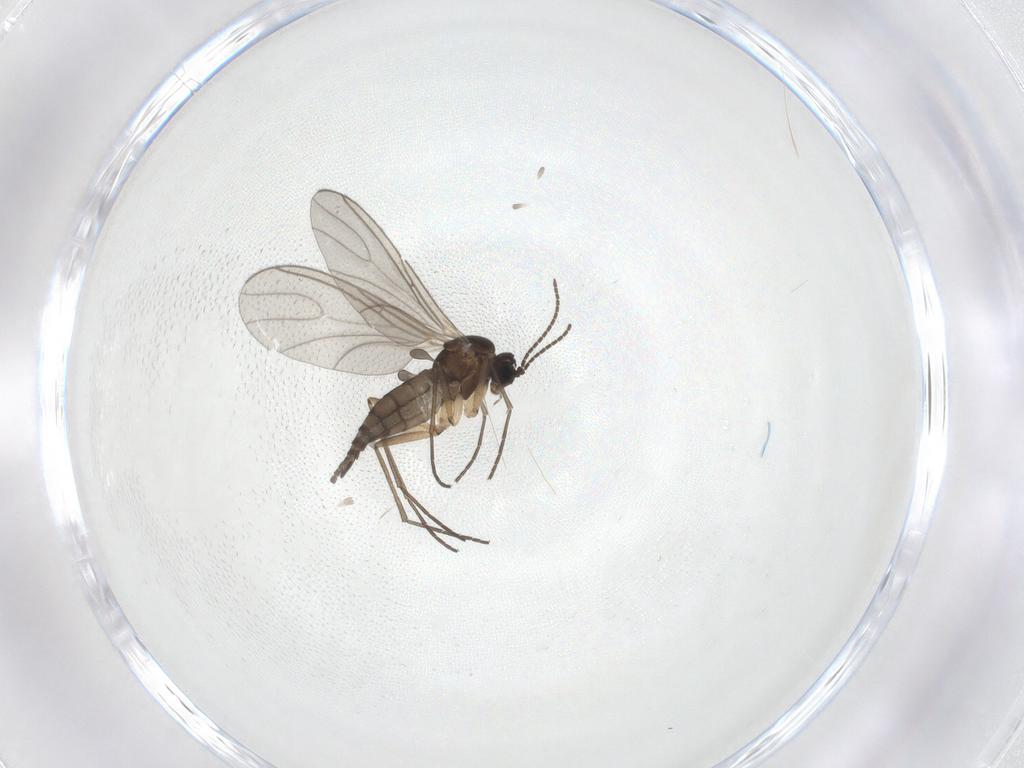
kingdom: Animalia
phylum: Arthropoda
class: Insecta
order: Diptera
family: Sciaridae
